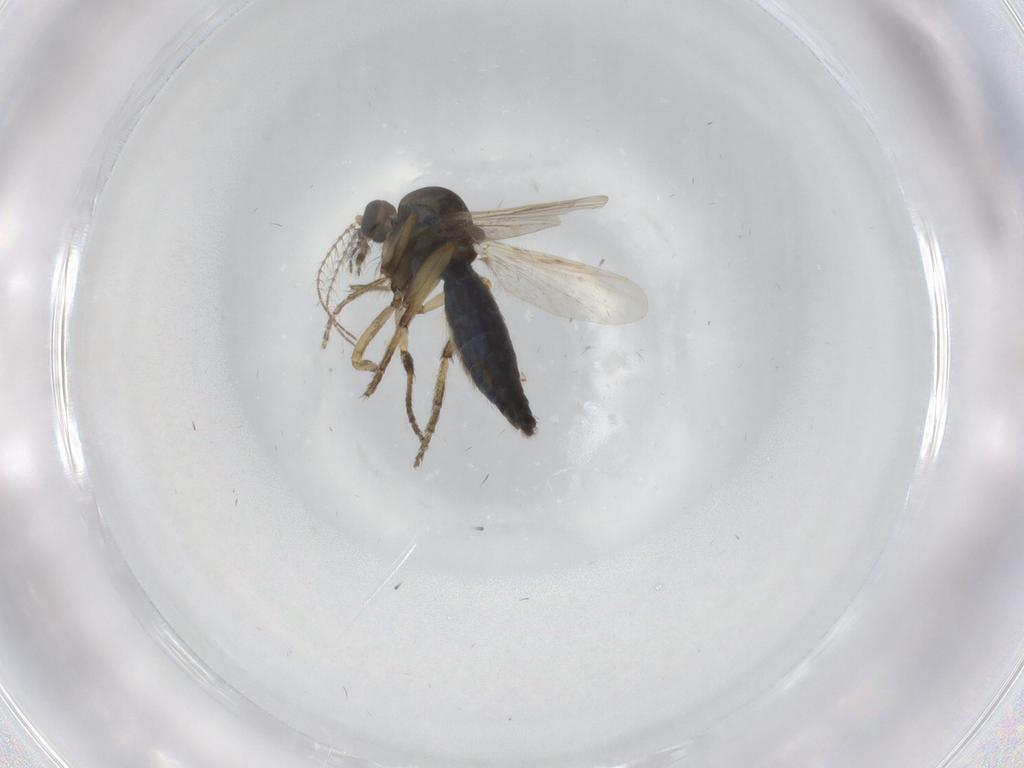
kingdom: Animalia
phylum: Arthropoda
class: Insecta
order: Diptera
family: Ceratopogonidae
